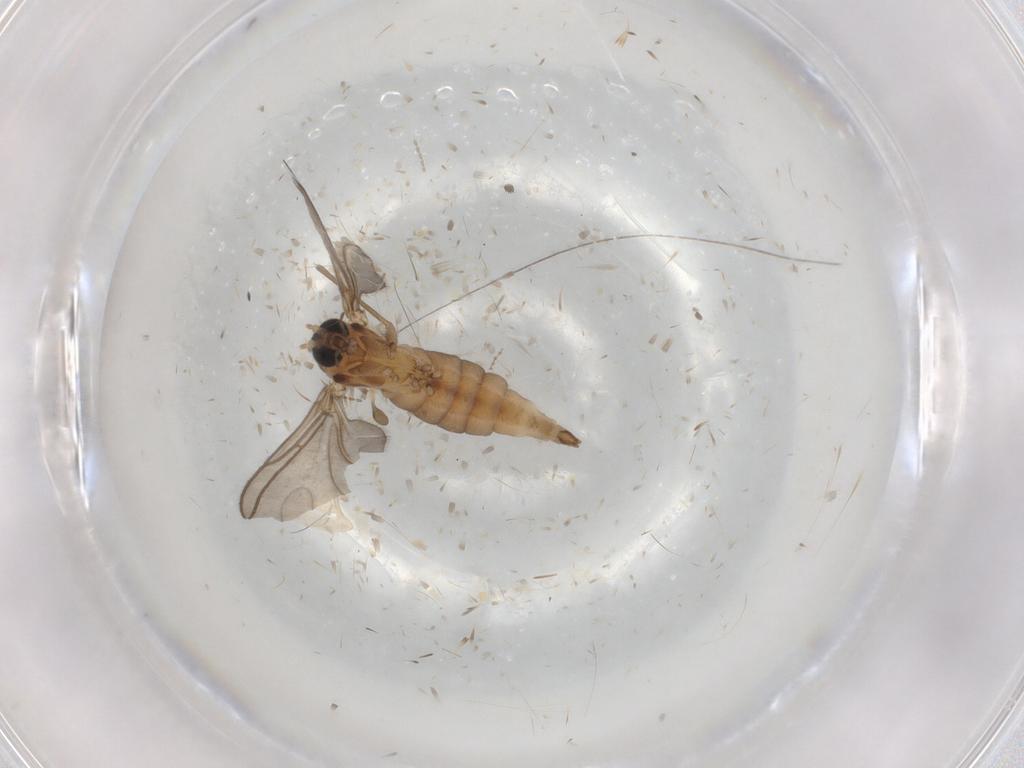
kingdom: Animalia
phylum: Arthropoda
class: Insecta
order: Diptera
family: Sciaridae
